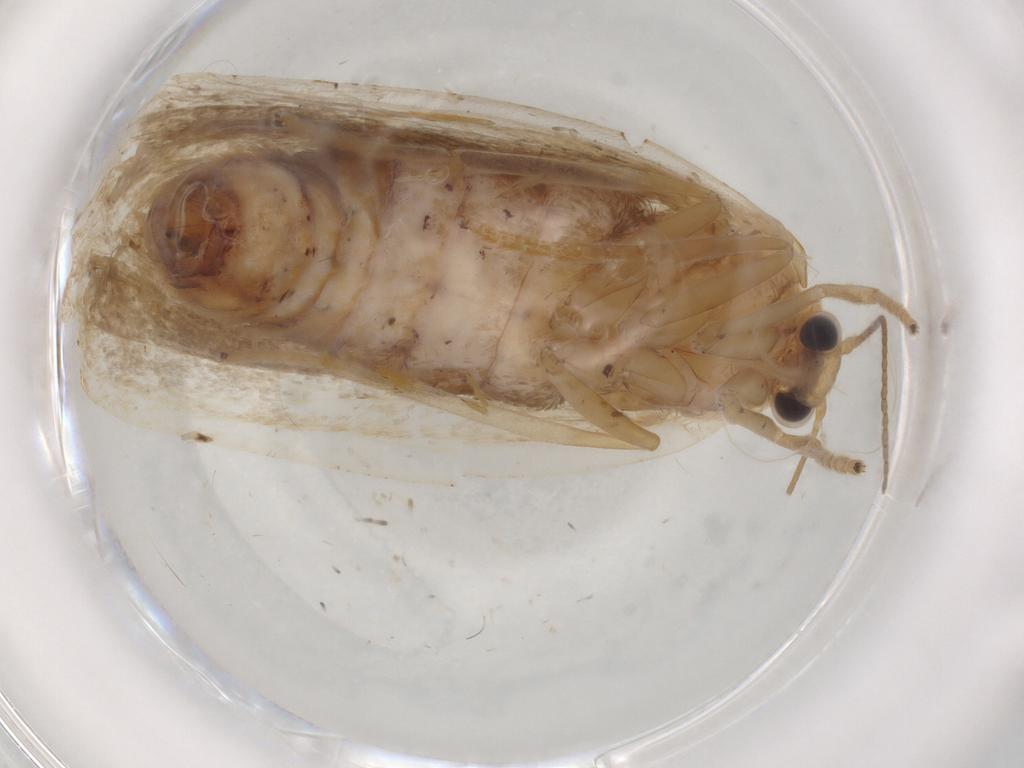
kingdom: Animalia
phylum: Arthropoda
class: Insecta
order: Lepidoptera
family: Erebidae
